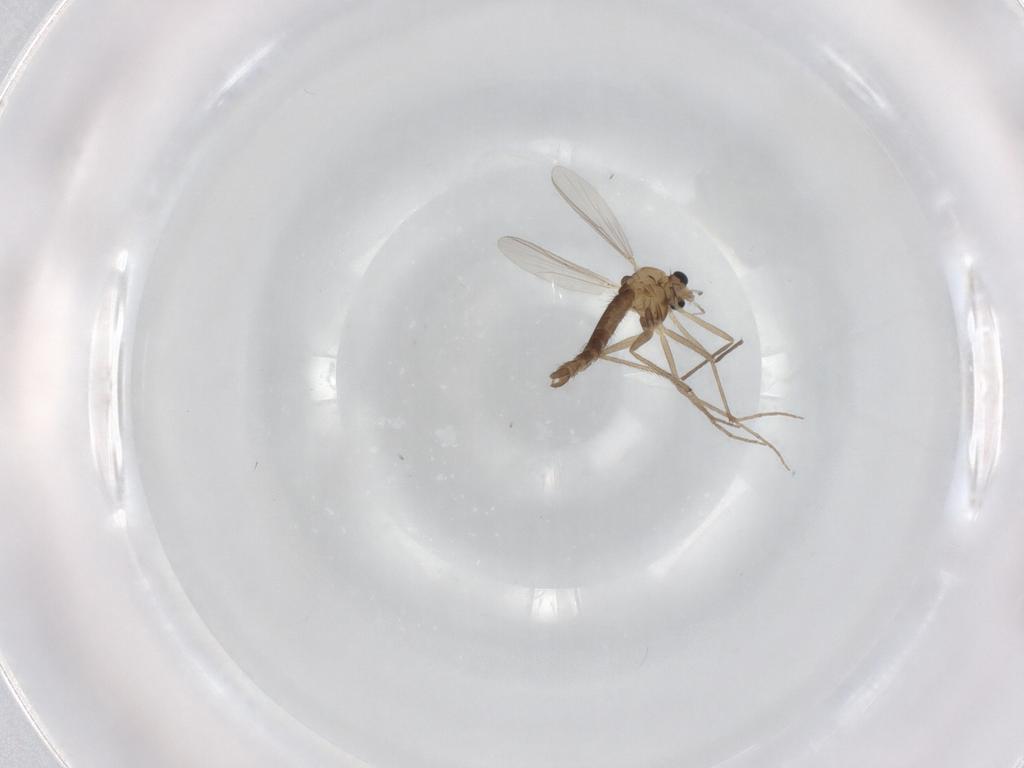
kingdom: Animalia
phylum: Arthropoda
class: Insecta
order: Diptera
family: Chironomidae
